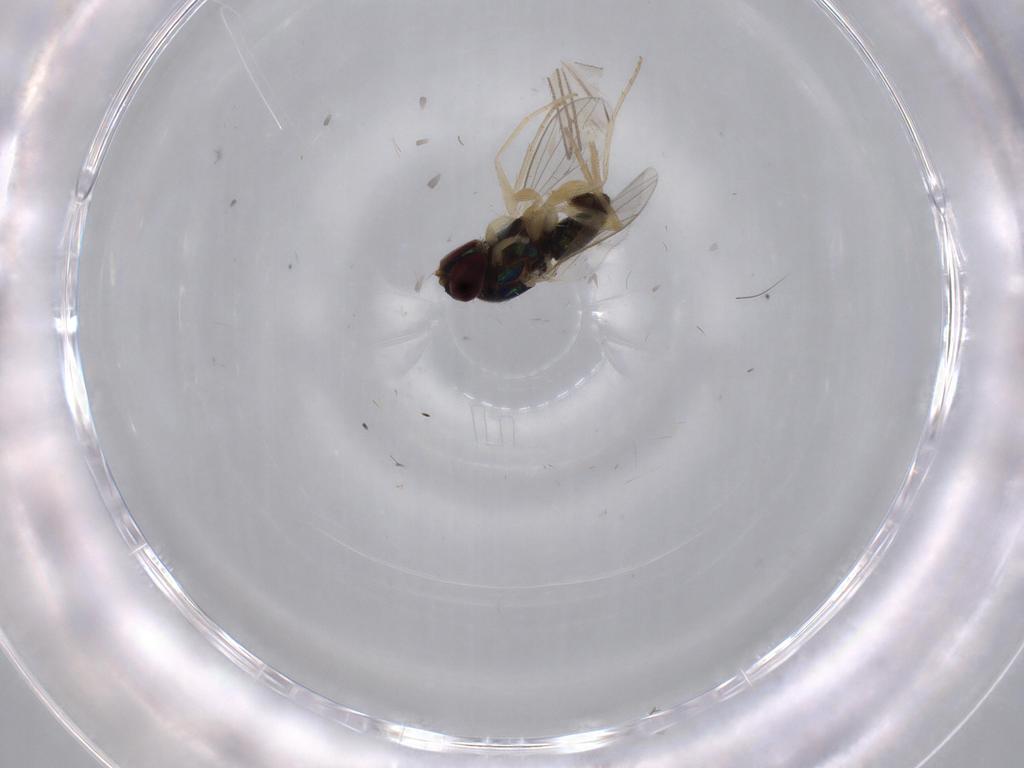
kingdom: Animalia
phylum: Arthropoda
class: Insecta
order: Diptera
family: Dolichopodidae
